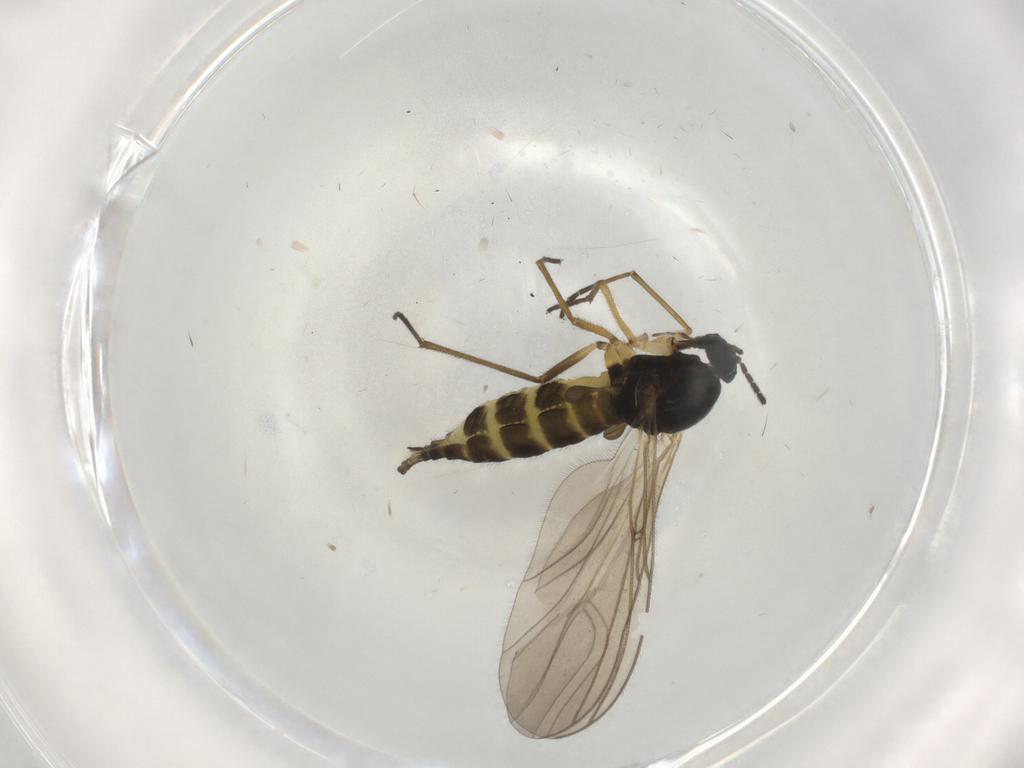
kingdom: Animalia
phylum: Arthropoda
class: Insecta
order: Diptera
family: Sciaridae
